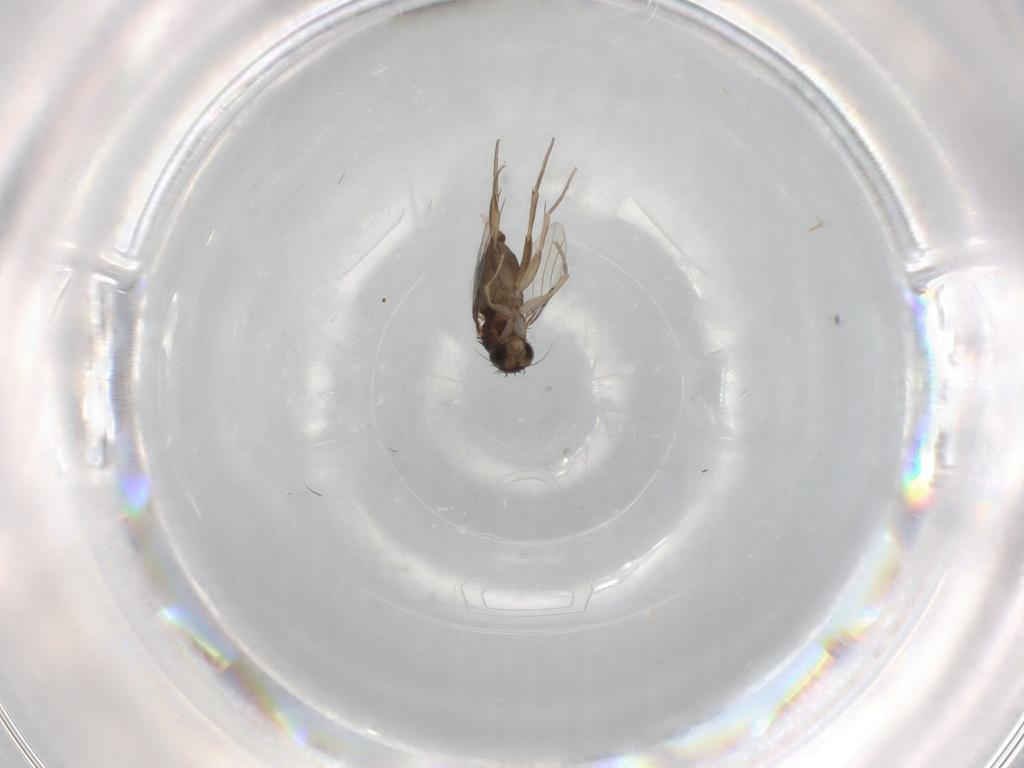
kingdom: Animalia
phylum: Arthropoda
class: Insecta
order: Diptera
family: Phoridae
